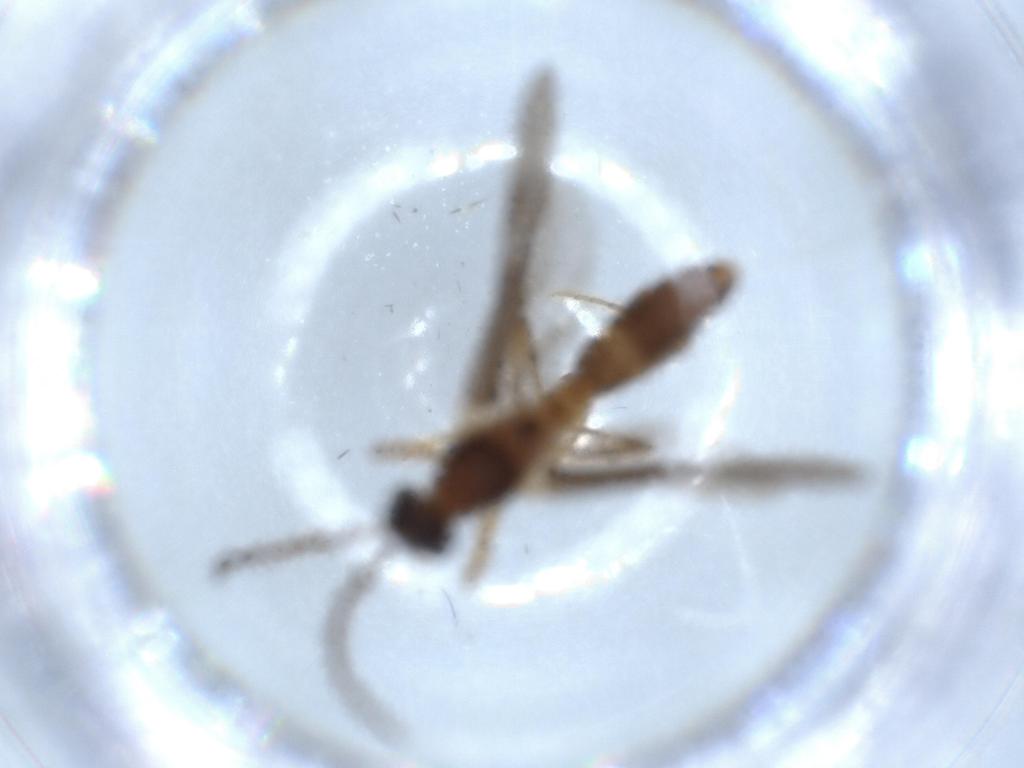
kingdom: Animalia
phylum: Arthropoda
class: Insecta
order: Hymenoptera
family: Formicidae
